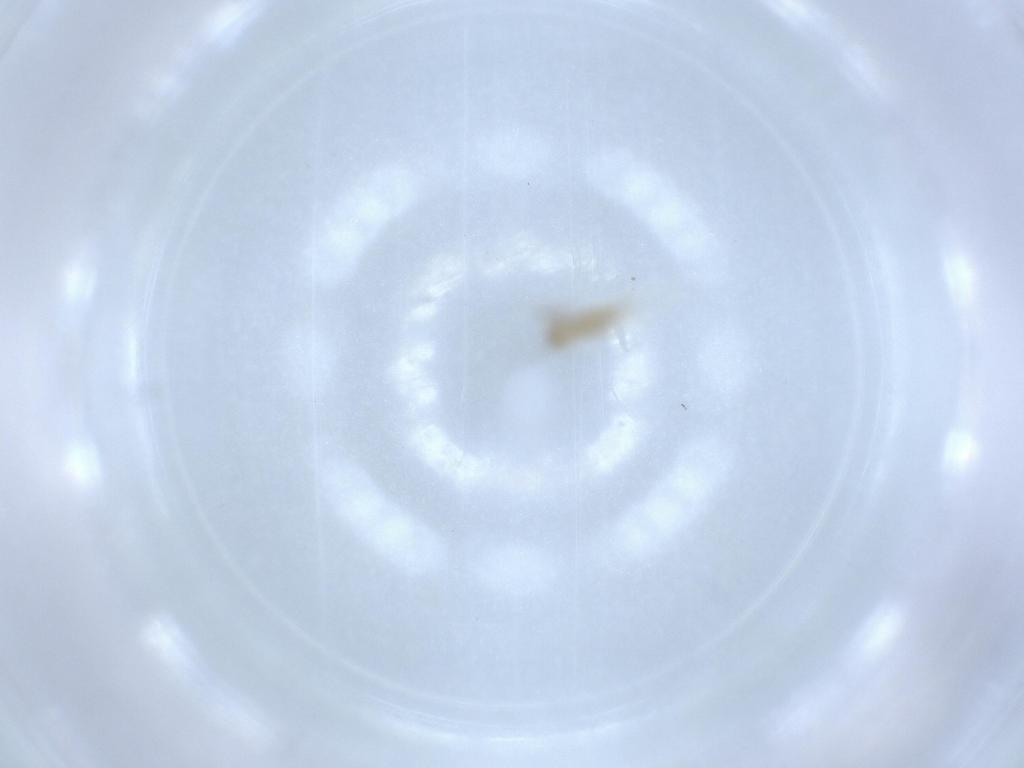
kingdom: Animalia
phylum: Arthropoda
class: Insecta
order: Diptera
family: Cecidomyiidae
